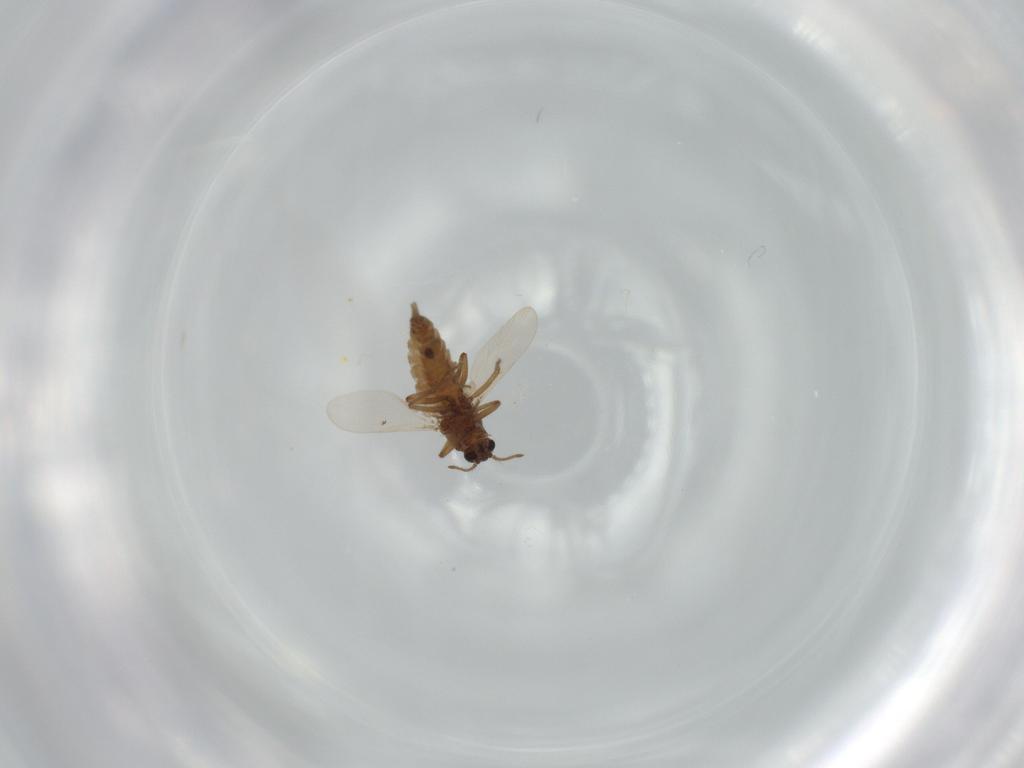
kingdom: Animalia
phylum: Arthropoda
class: Insecta
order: Diptera
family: Ceratopogonidae
